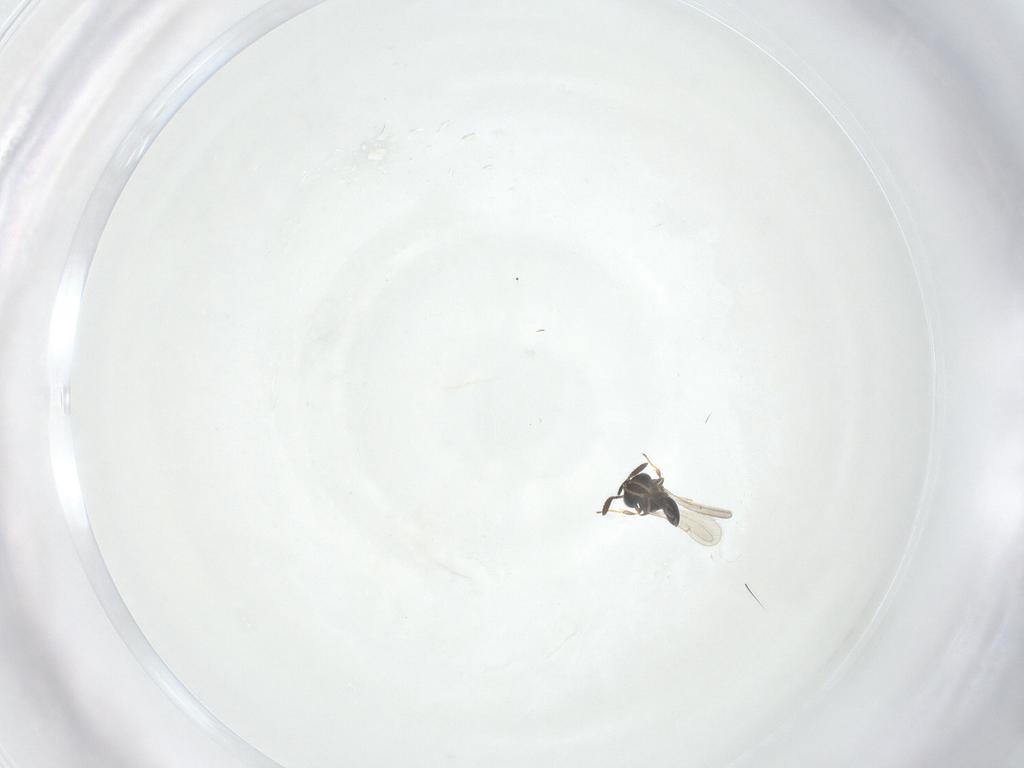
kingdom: Animalia
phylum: Arthropoda
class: Insecta
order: Hymenoptera
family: Scelionidae
